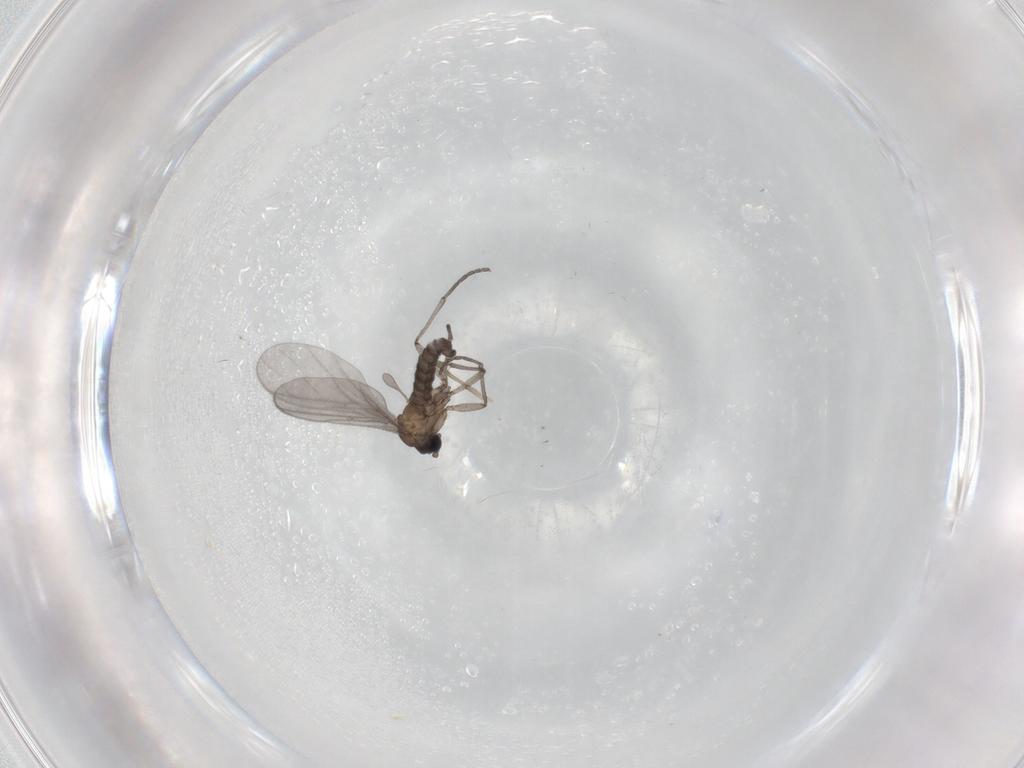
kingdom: Animalia
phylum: Arthropoda
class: Insecta
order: Diptera
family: Sciaridae
